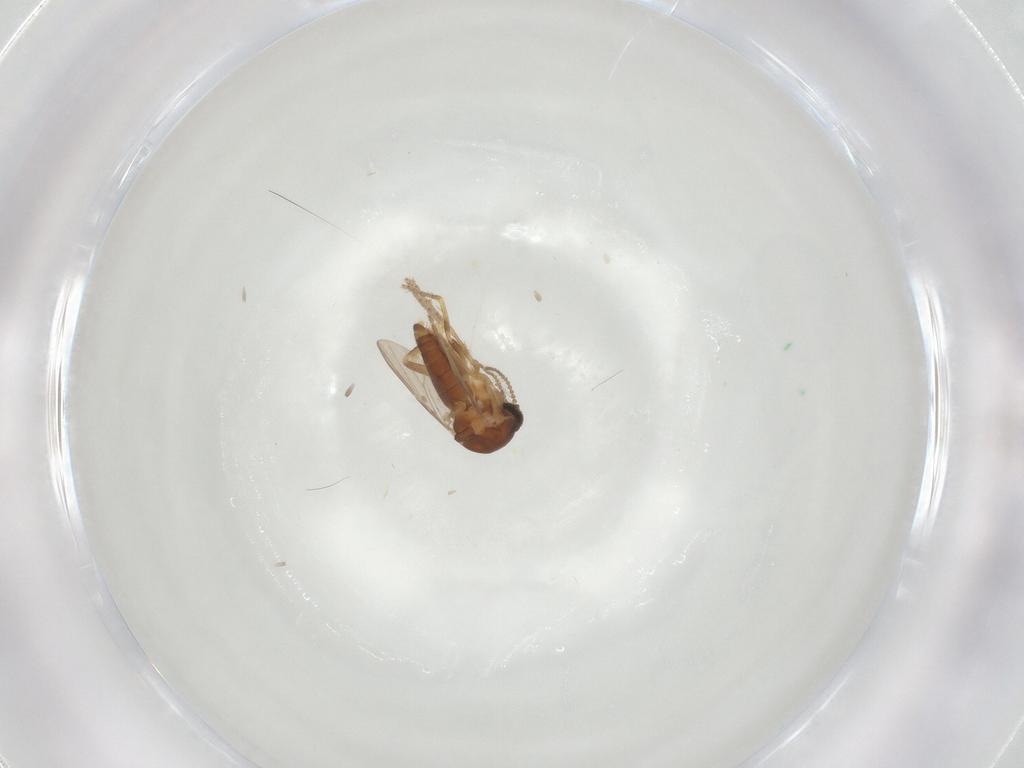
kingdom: Animalia
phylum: Arthropoda
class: Insecta
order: Diptera
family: Ceratopogonidae
